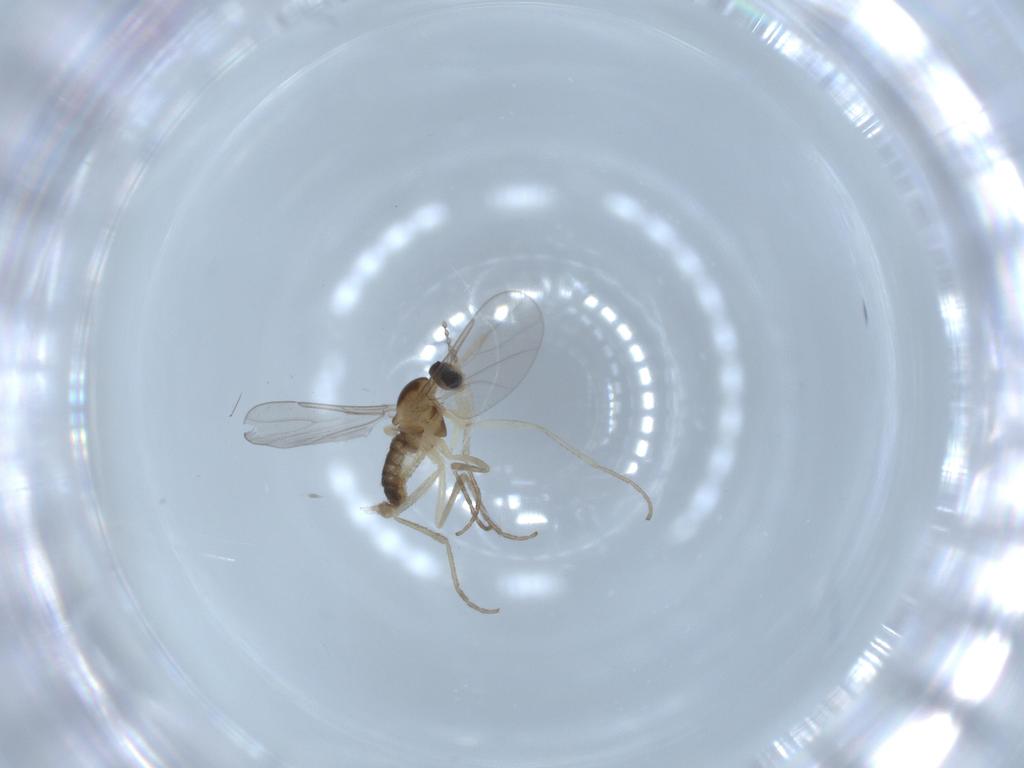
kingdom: Animalia
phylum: Arthropoda
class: Insecta
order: Diptera
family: Cecidomyiidae
